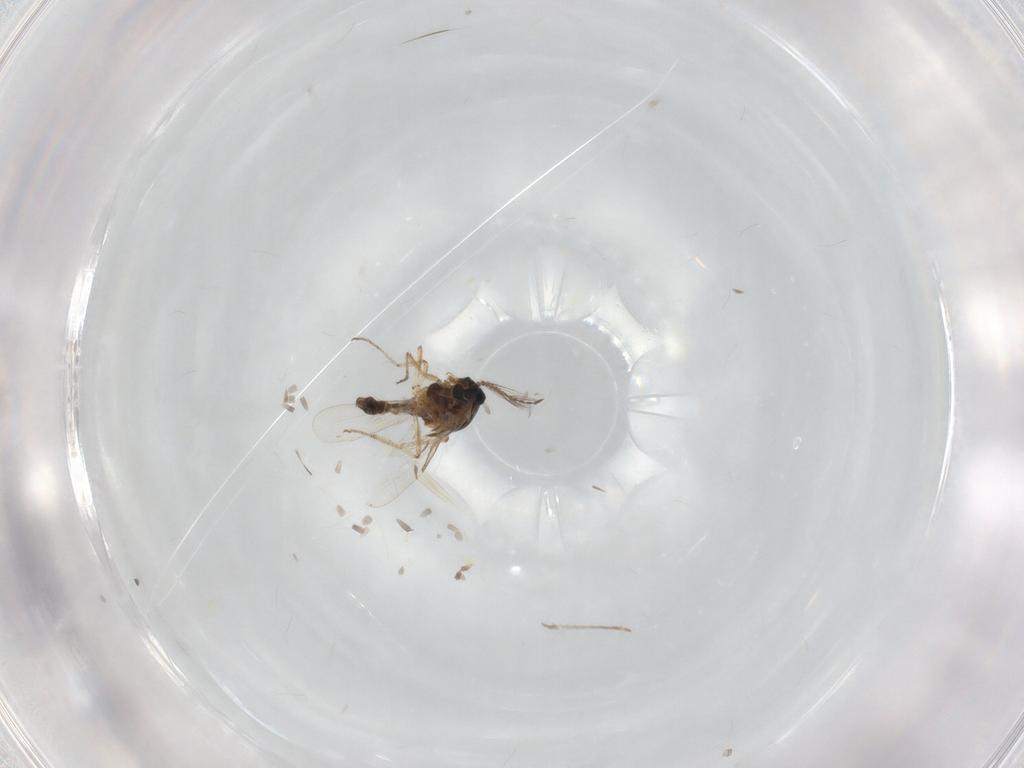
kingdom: Animalia
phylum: Arthropoda
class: Insecta
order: Diptera
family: Ceratopogonidae
